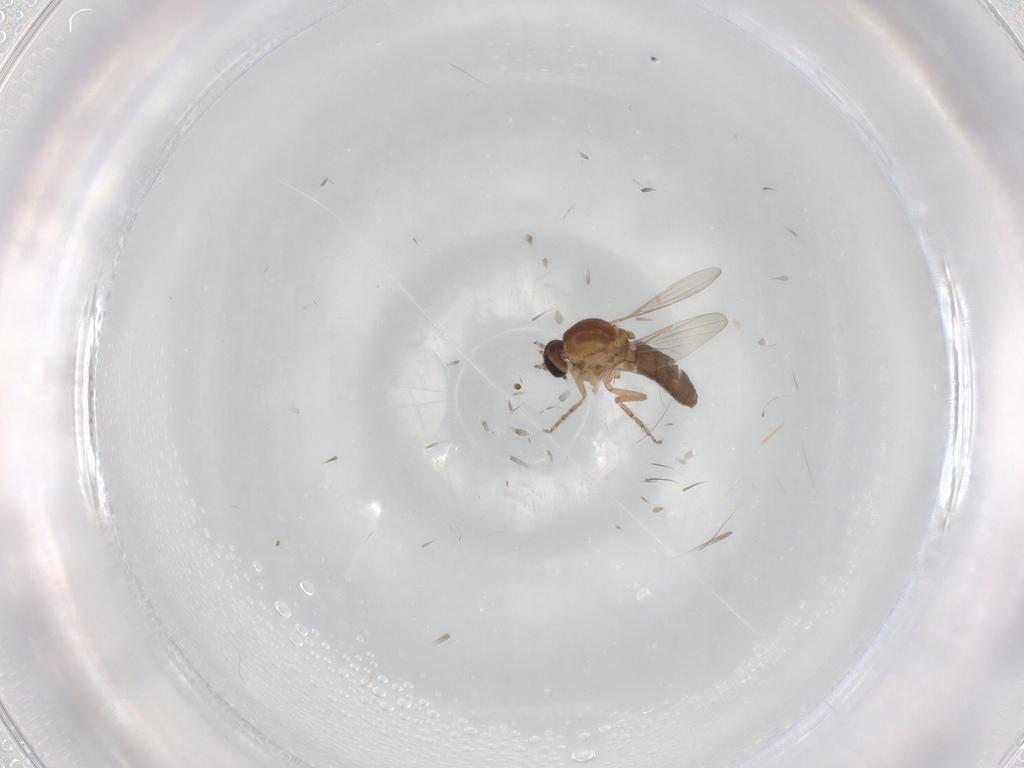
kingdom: Animalia
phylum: Arthropoda
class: Insecta
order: Diptera
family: Ceratopogonidae
